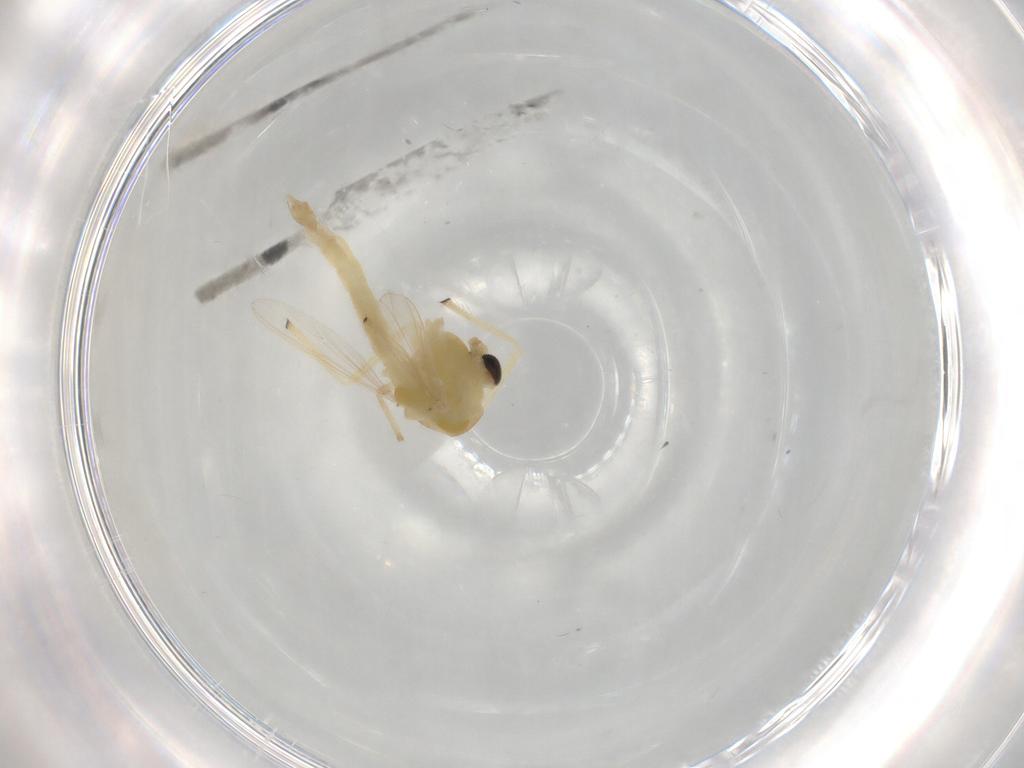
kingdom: Animalia
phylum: Arthropoda
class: Insecta
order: Diptera
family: Chironomidae
